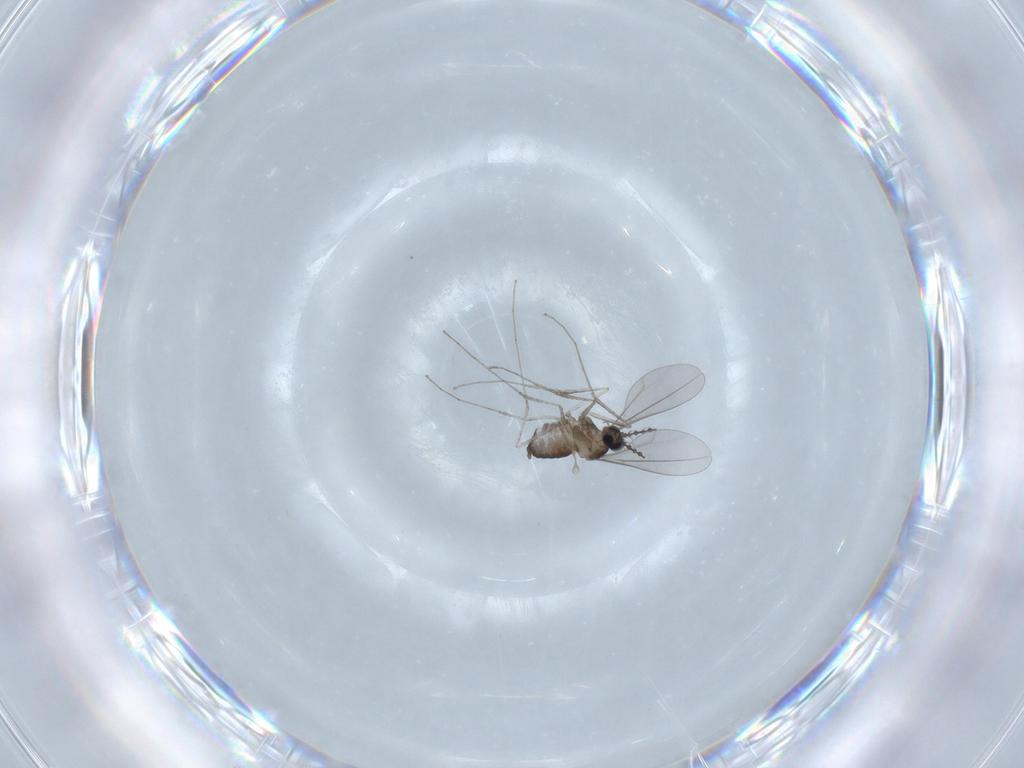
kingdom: Animalia
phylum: Arthropoda
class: Insecta
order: Diptera
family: Cecidomyiidae
